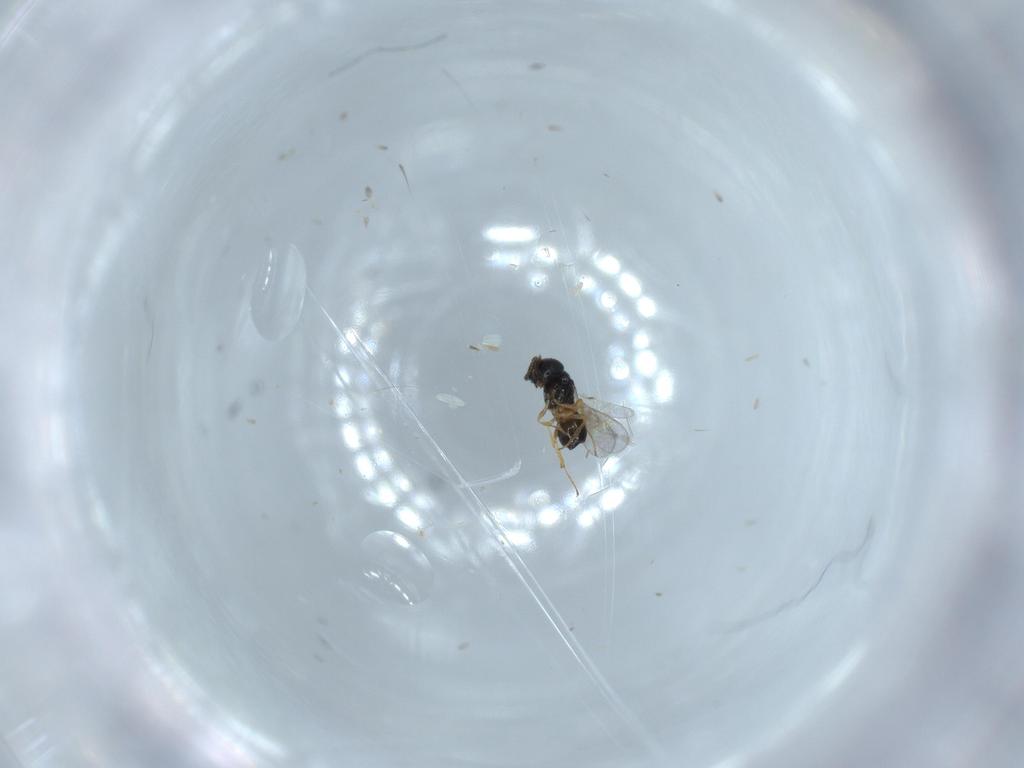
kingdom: Animalia
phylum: Arthropoda
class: Insecta
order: Hymenoptera
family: Scelionidae
